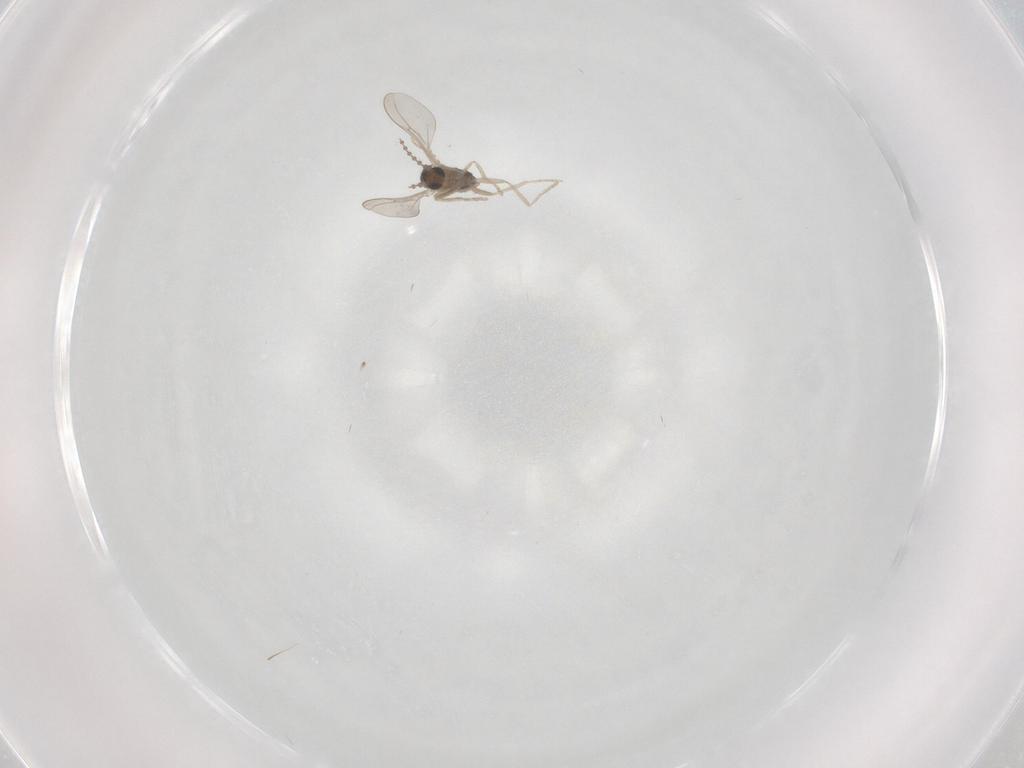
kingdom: Animalia
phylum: Arthropoda
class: Insecta
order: Diptera
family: Cecidomyiidae
